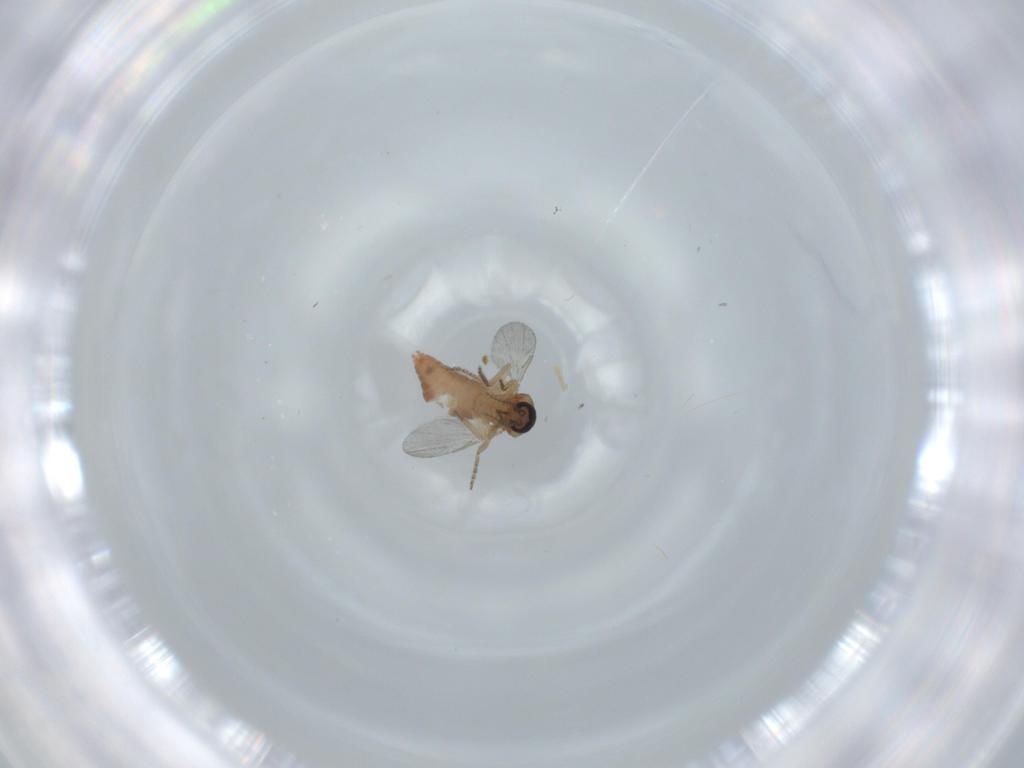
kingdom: Animalia
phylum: Arthropoda
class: Insecta
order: Diptera
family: Ceratopogonidae
